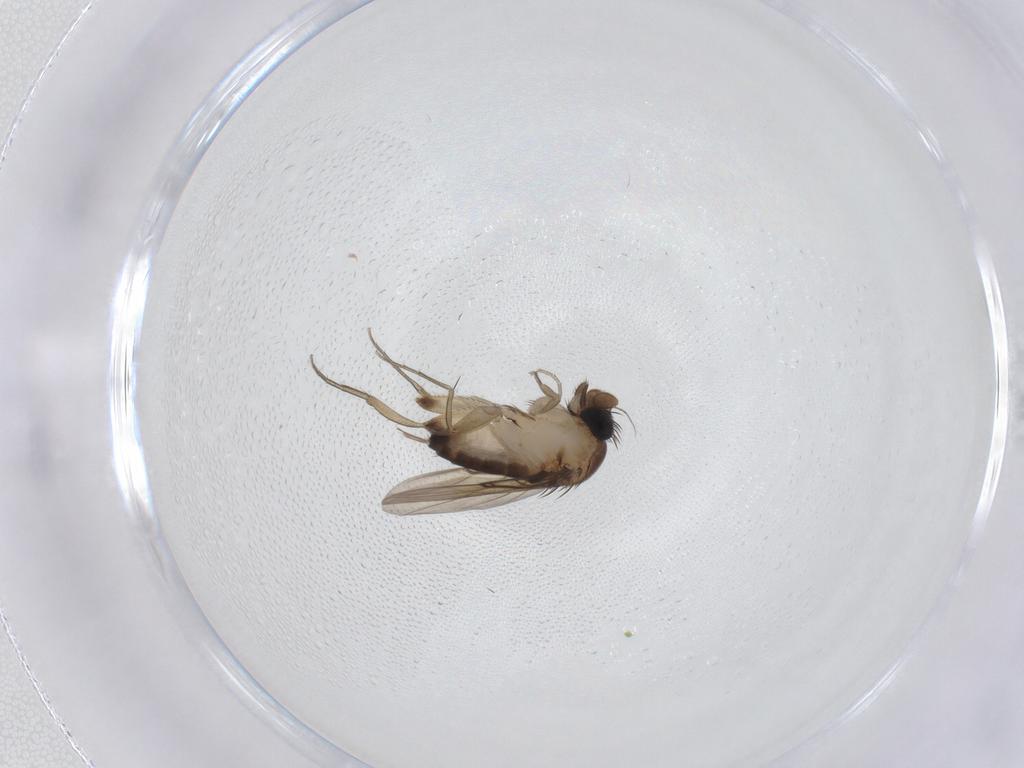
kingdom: Animalia
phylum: Arthropoda
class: Insecta
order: Diptera
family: Phoridae
